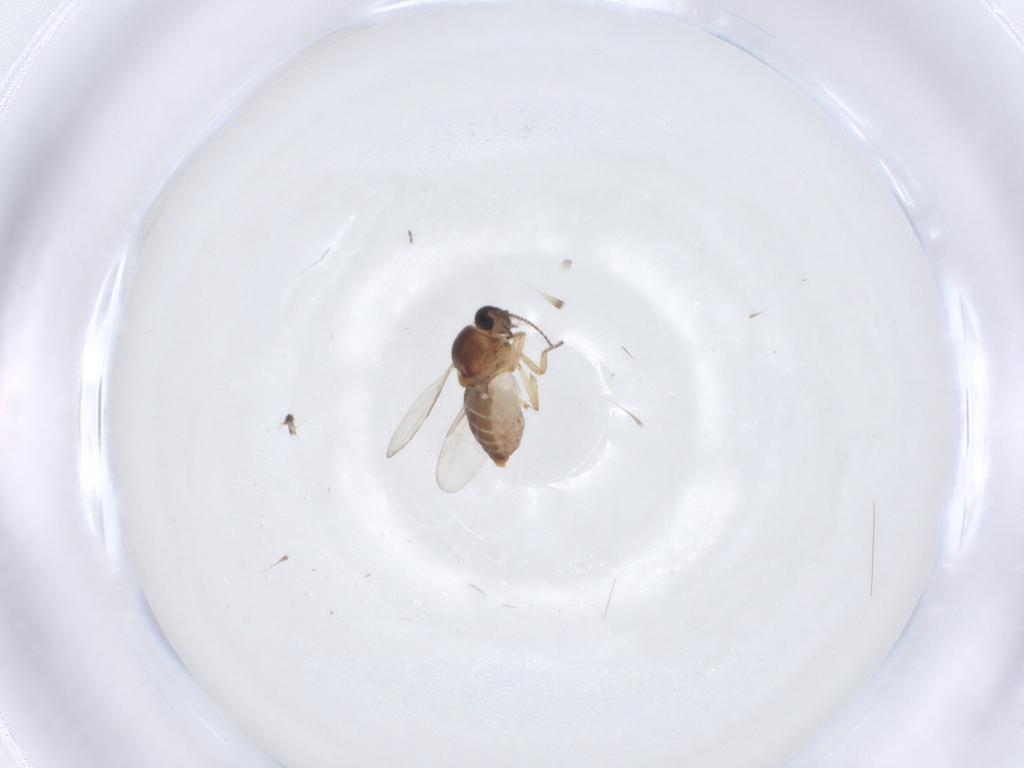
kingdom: Animalia
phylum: Arthropoda
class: Insecta
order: Diptera
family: Ceratopogonidae
